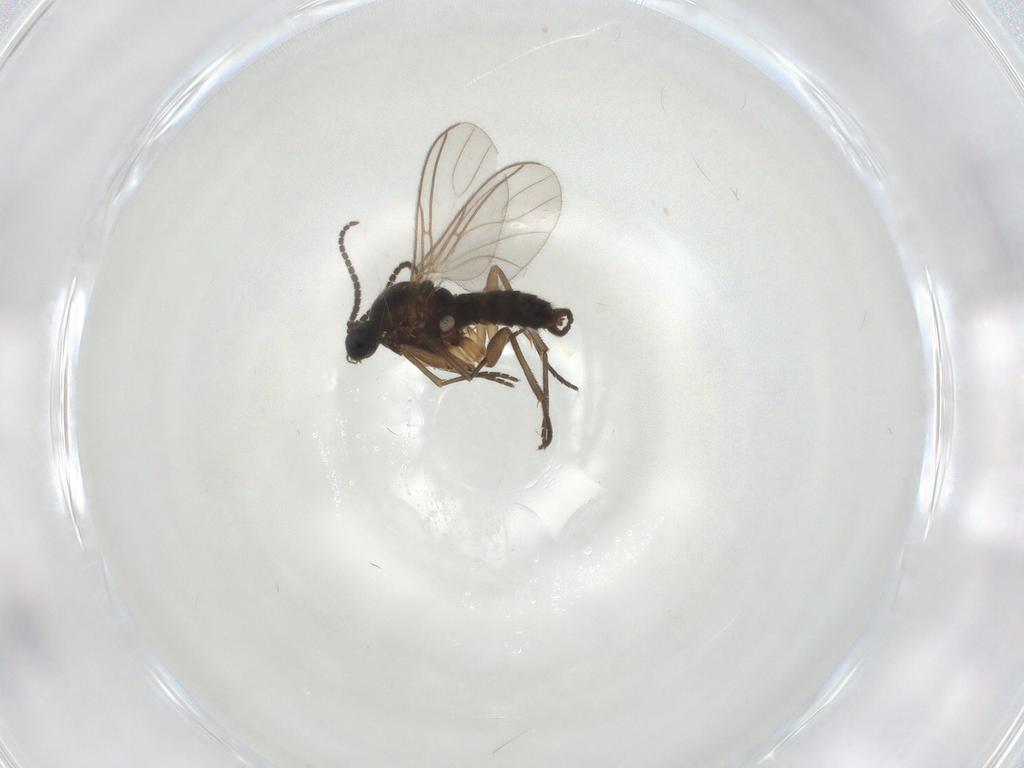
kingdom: Animalia
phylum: Arthropoda
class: Insecta
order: Diptera
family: Sciaridae
